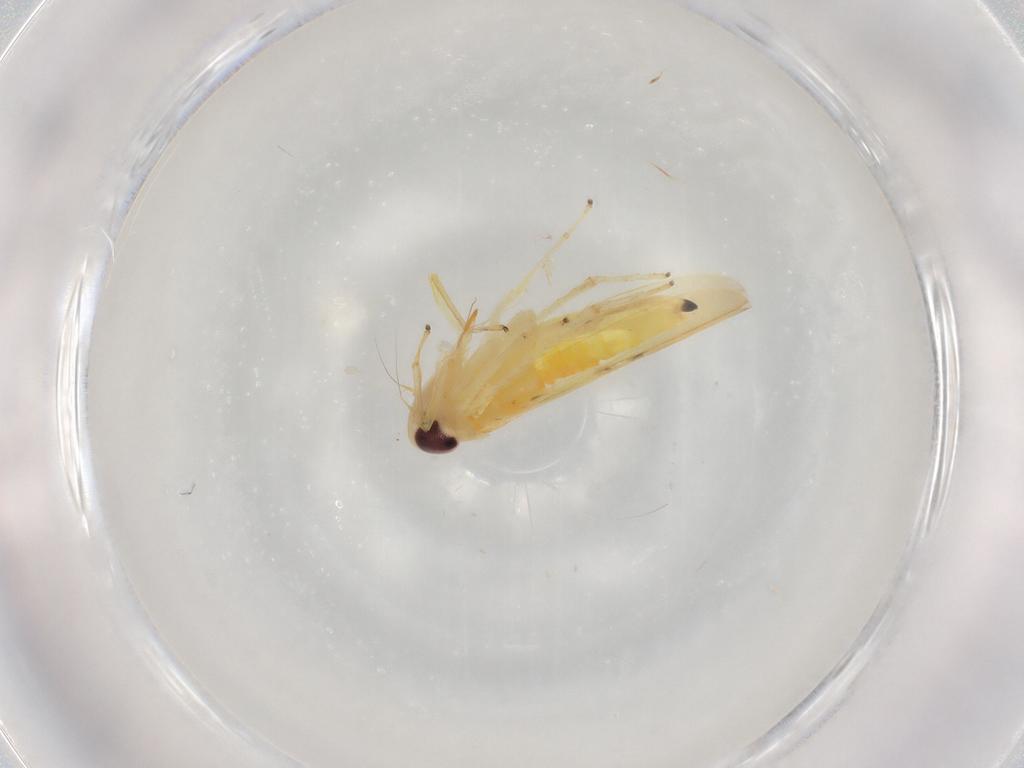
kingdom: Animalia
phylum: Arthropoda
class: Insecta
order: Hemiptera
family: Cicadellidae
